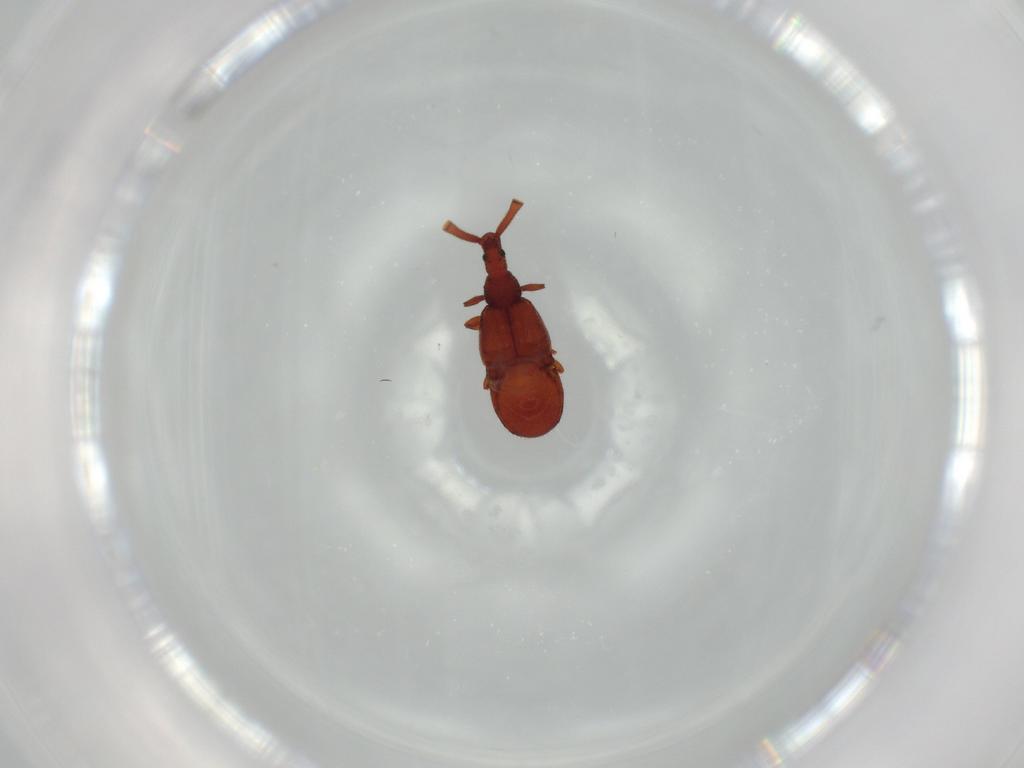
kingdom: Animalia
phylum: Arthropoda
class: Insecta
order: Coleoptera
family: Staphylinidae
